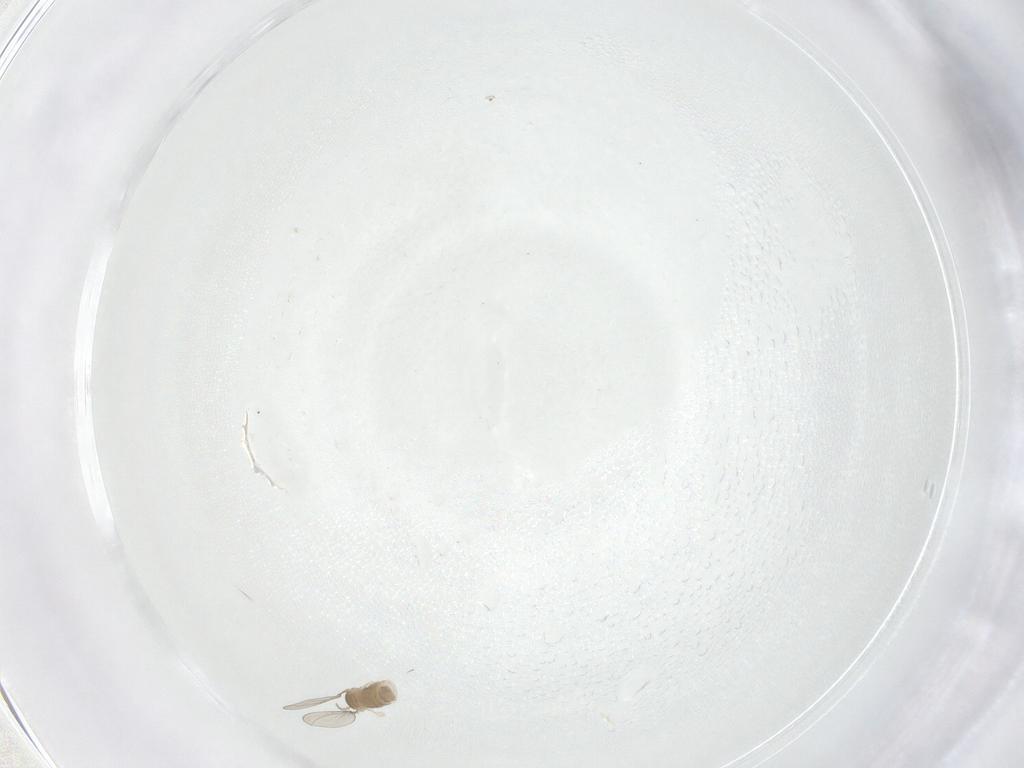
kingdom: Animalia
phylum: Arthropoda
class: Insecta
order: Diptera
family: Cecidomyiidae
